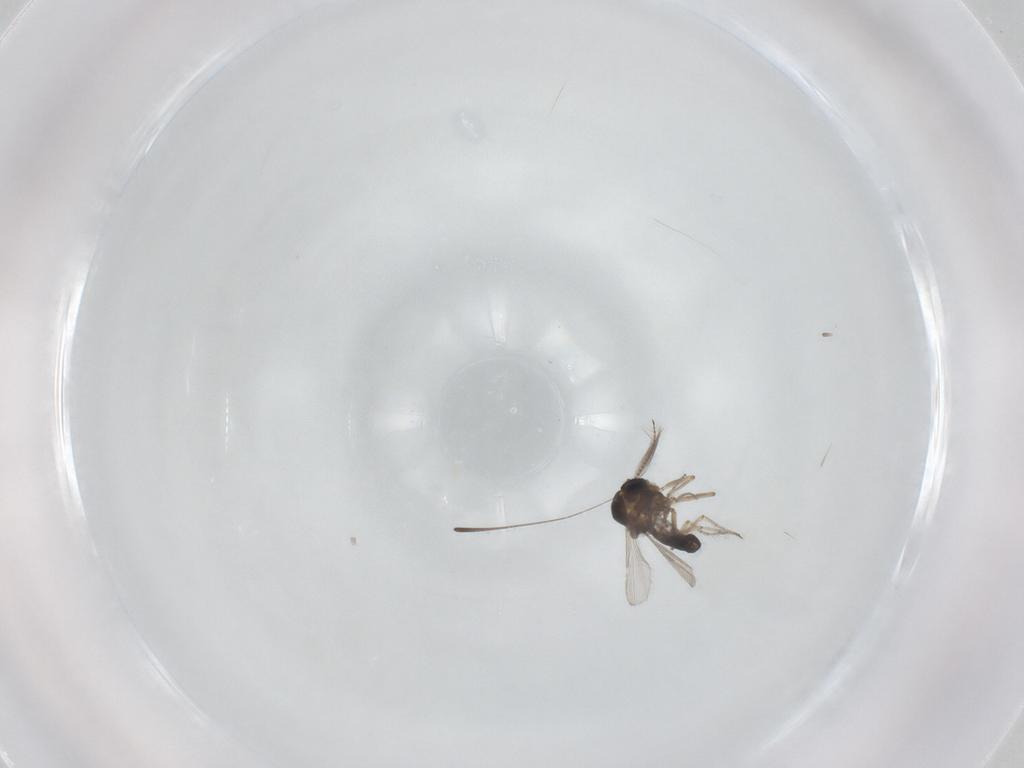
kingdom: Animalia
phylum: Arthropoda
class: Insecta
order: Diptera
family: Ceratopogonidae
